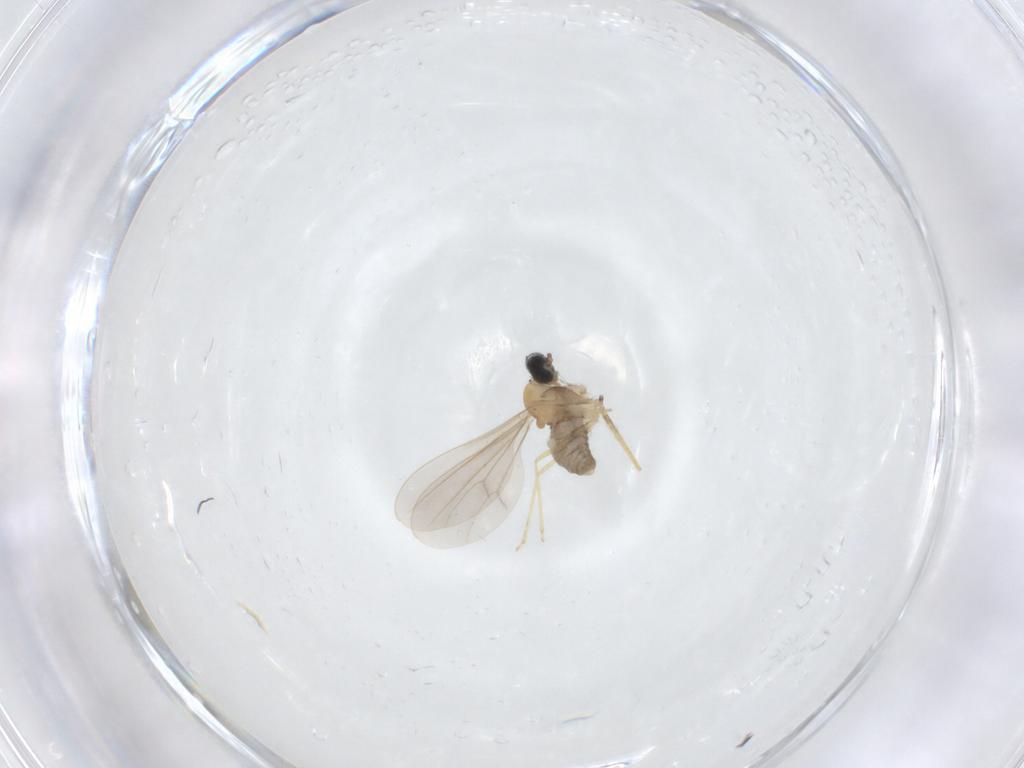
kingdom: Animalia
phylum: Arthropoda
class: Insecta
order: Diptera
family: Cecidomyiidae
